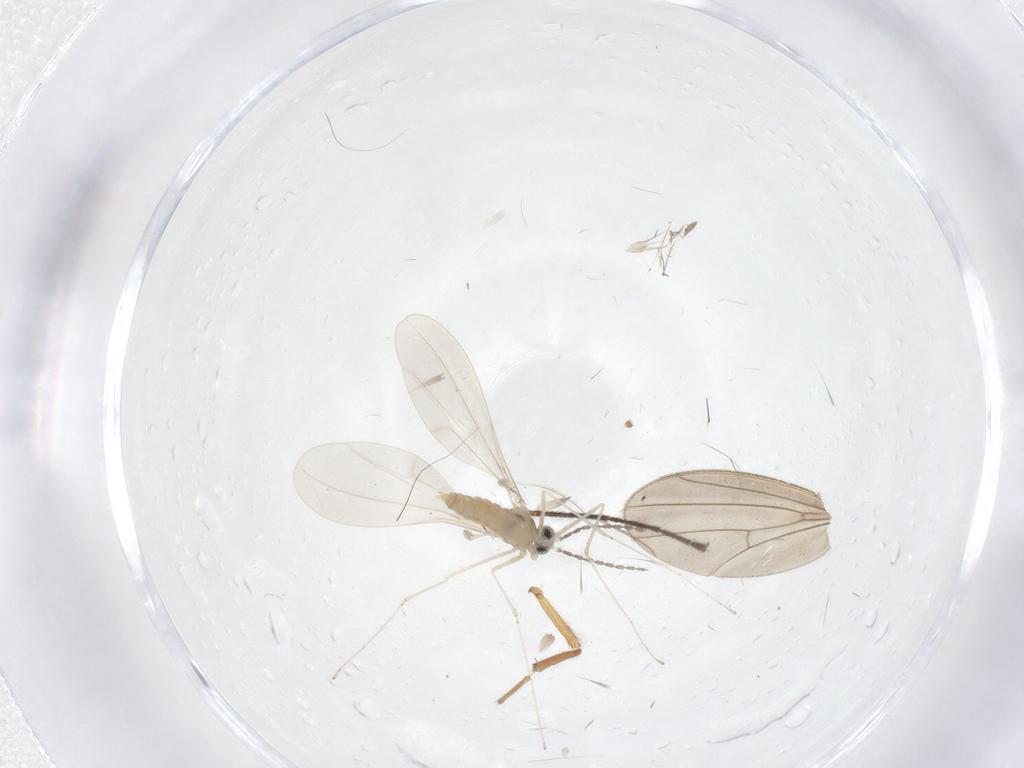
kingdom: Animalia
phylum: Arthropoda
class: Insecta
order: Diptera
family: Cecidomyiidae
